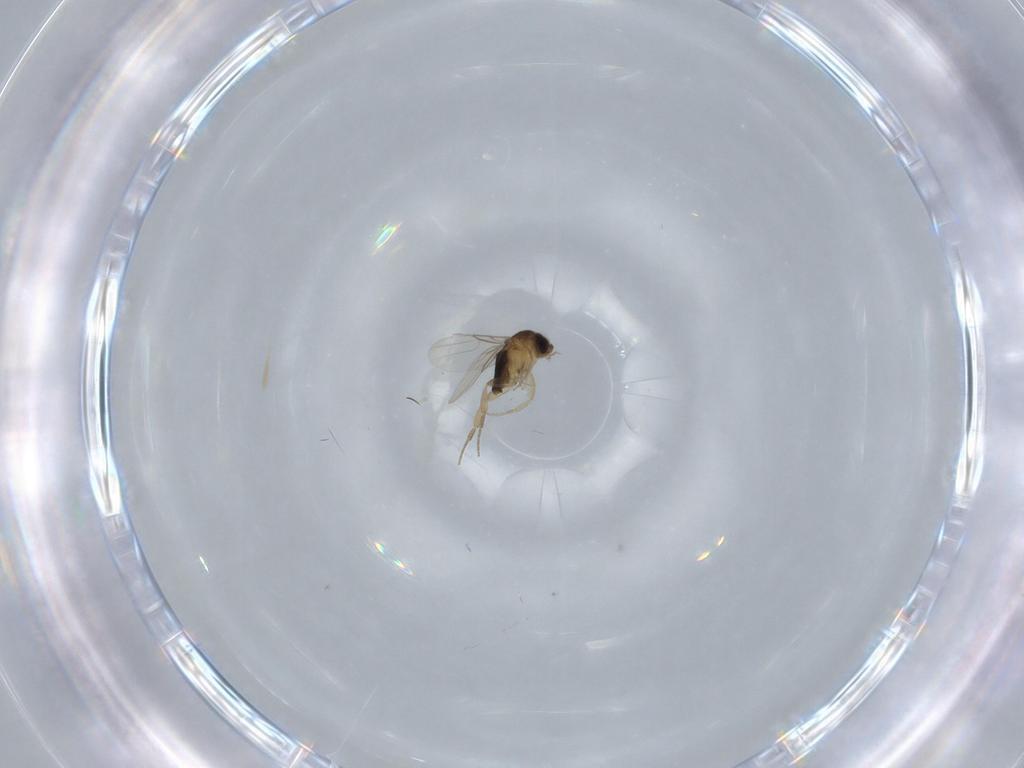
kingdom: Animalia
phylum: Arthropoda
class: Insecta
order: Diptera
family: Phoridae
